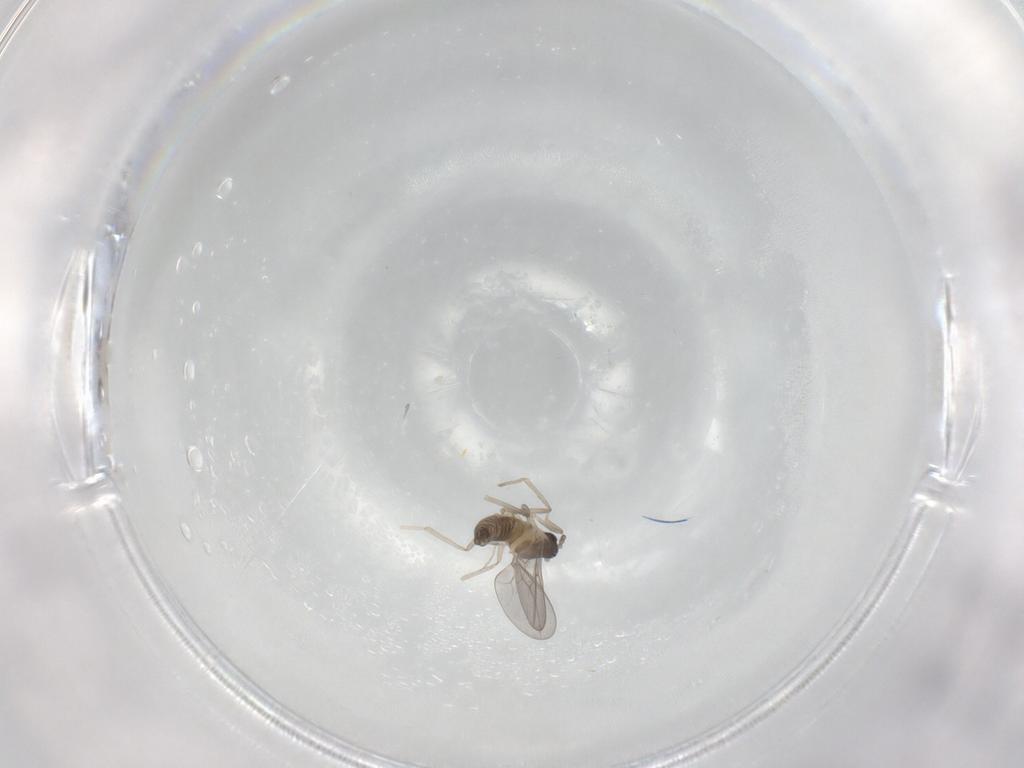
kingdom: Animalia
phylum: Arthropoda
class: Insecta
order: Diptera
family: Cecidomyiidae
